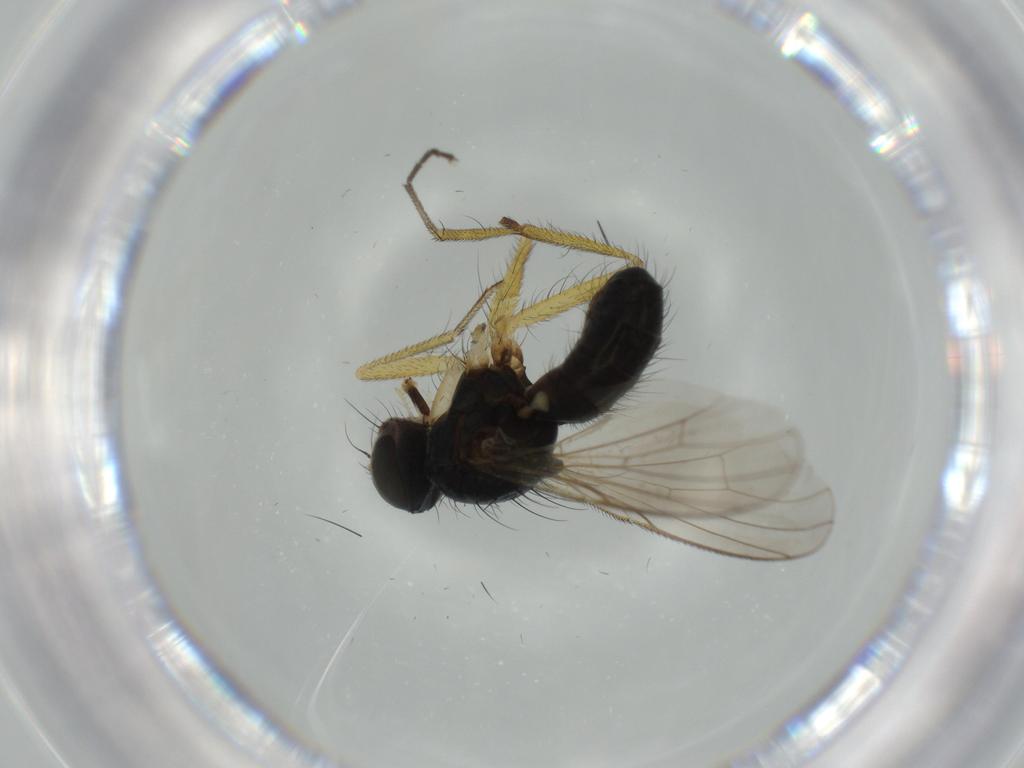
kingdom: Animalia
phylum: Arthropoda
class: Insecta
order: Diptera
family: Muscidae
